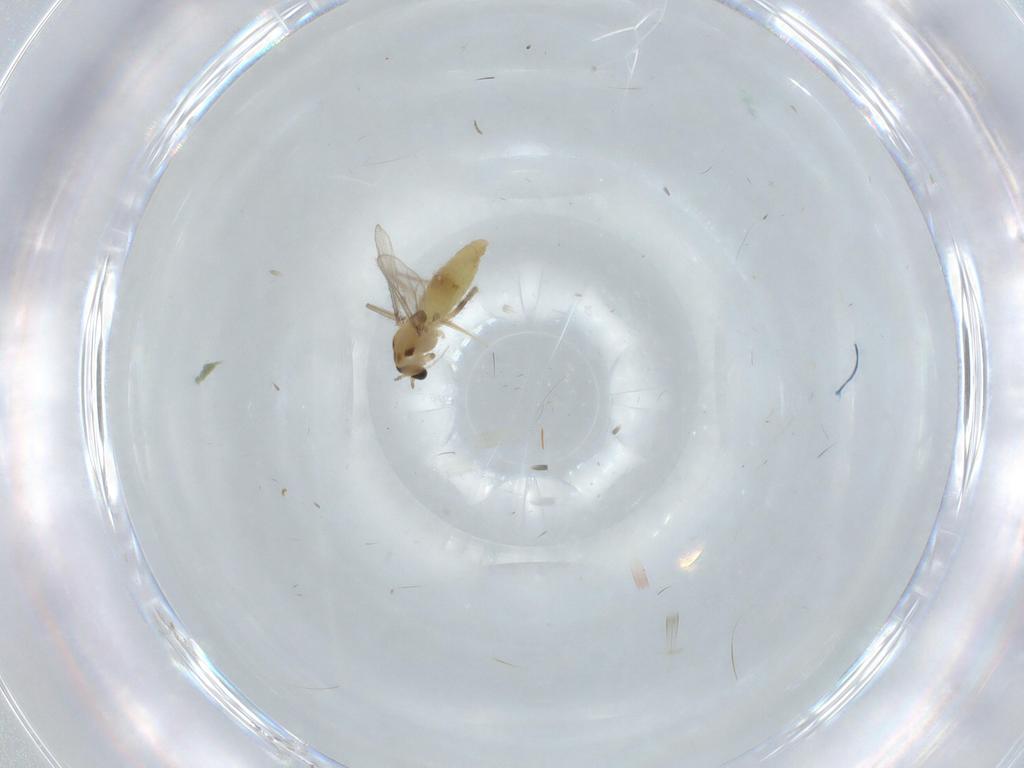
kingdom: Animalia
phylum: Arthropoda
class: Insecta
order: Diptera
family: Chironomidae
